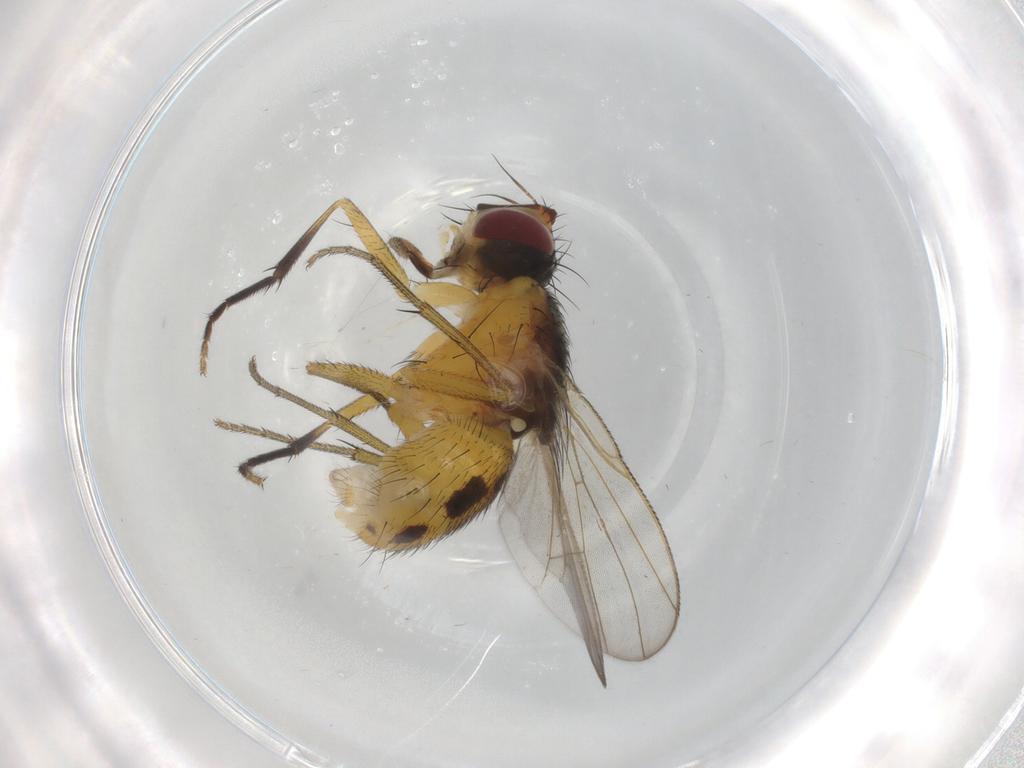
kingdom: Animalia
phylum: Arthropoda
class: Insecta
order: Diptera
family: Muscidae
